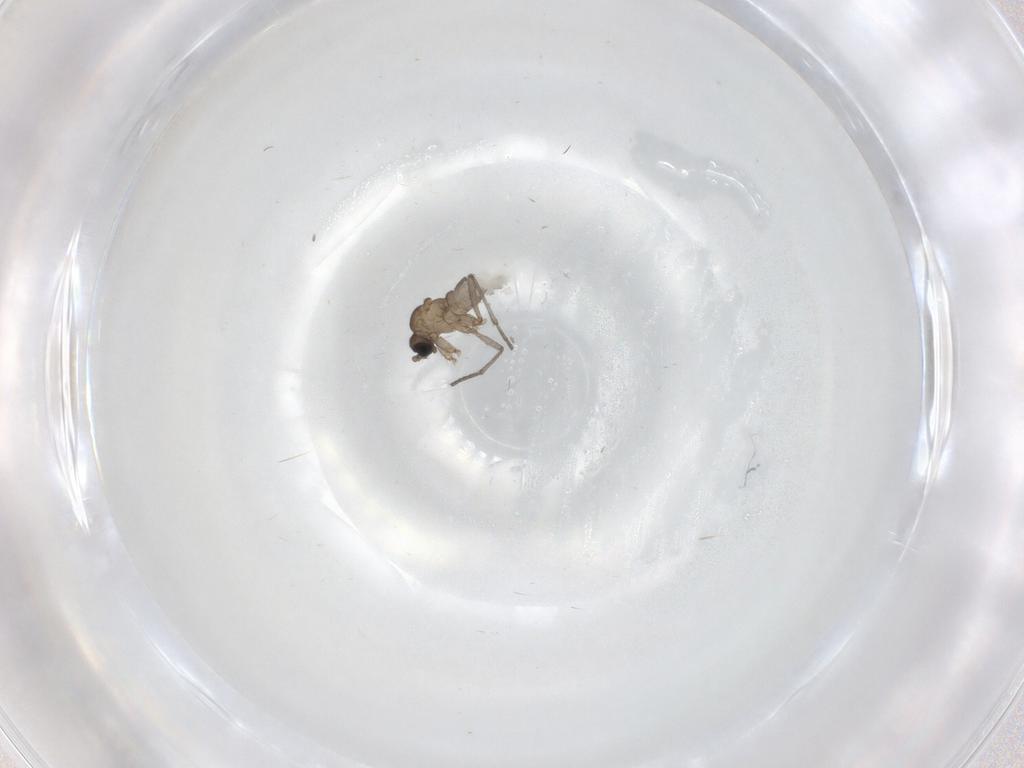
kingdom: Animalia
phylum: Arthropoda
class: Insecta
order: Diptera
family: Sciaridae
